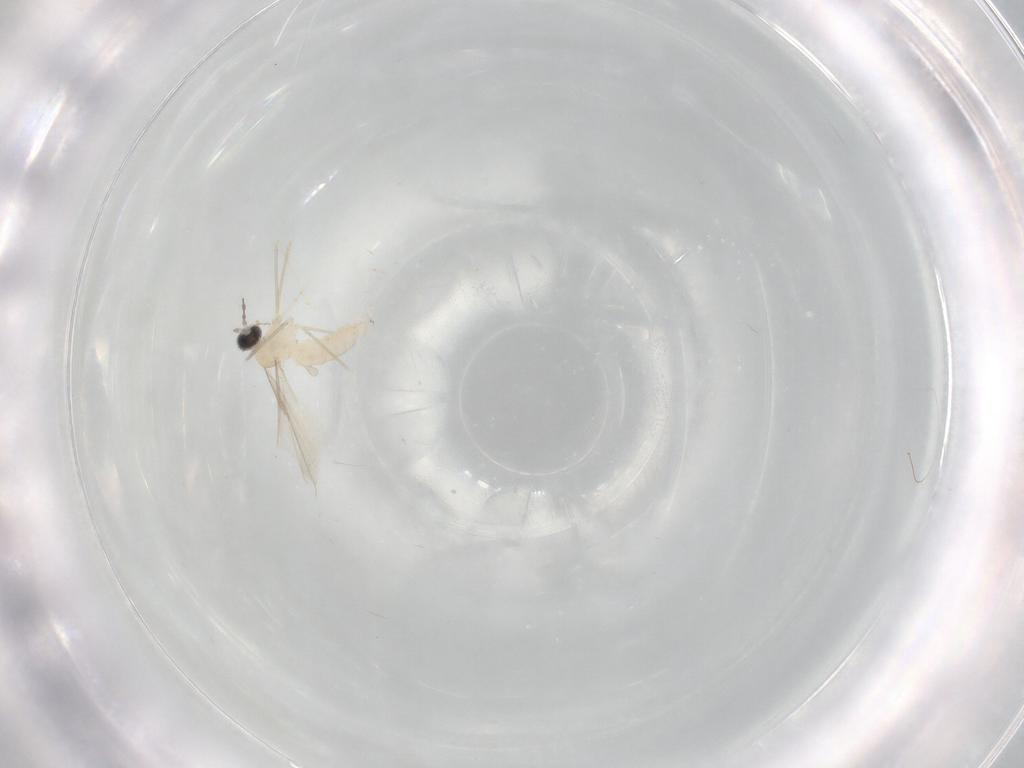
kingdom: Animalia
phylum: Arthropoda
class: Insecta
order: Diptera
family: Cecidomyiidae
